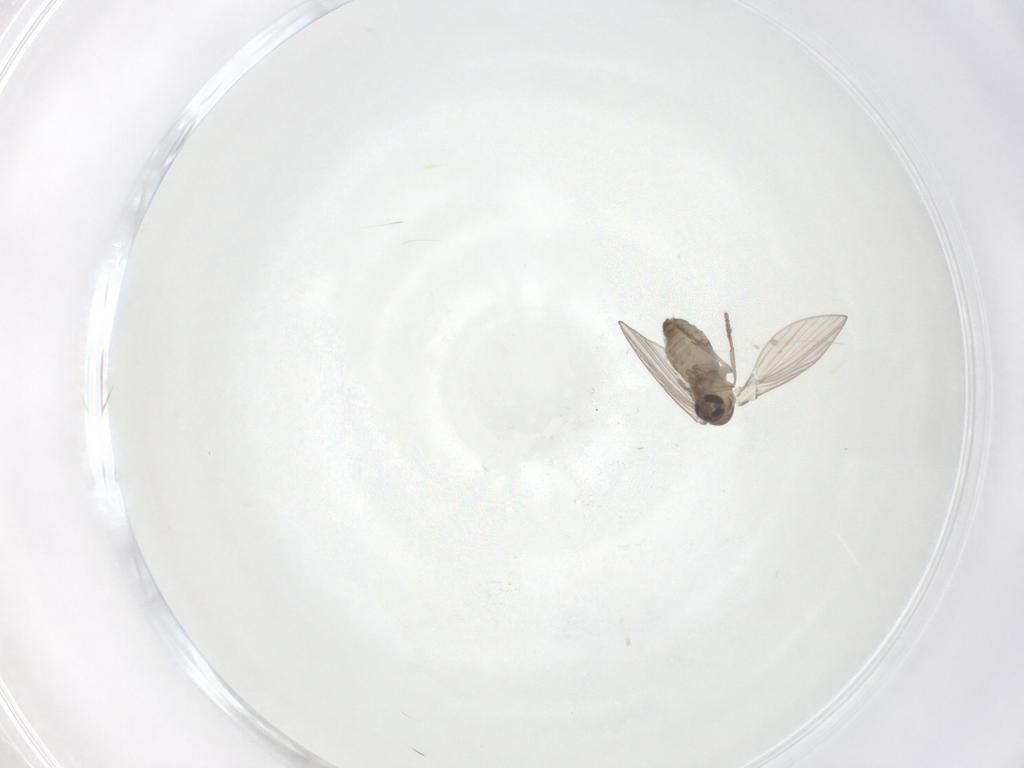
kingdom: Animalia
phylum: Arthropoda
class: Insecta
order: Diptera
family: Psychodidae
